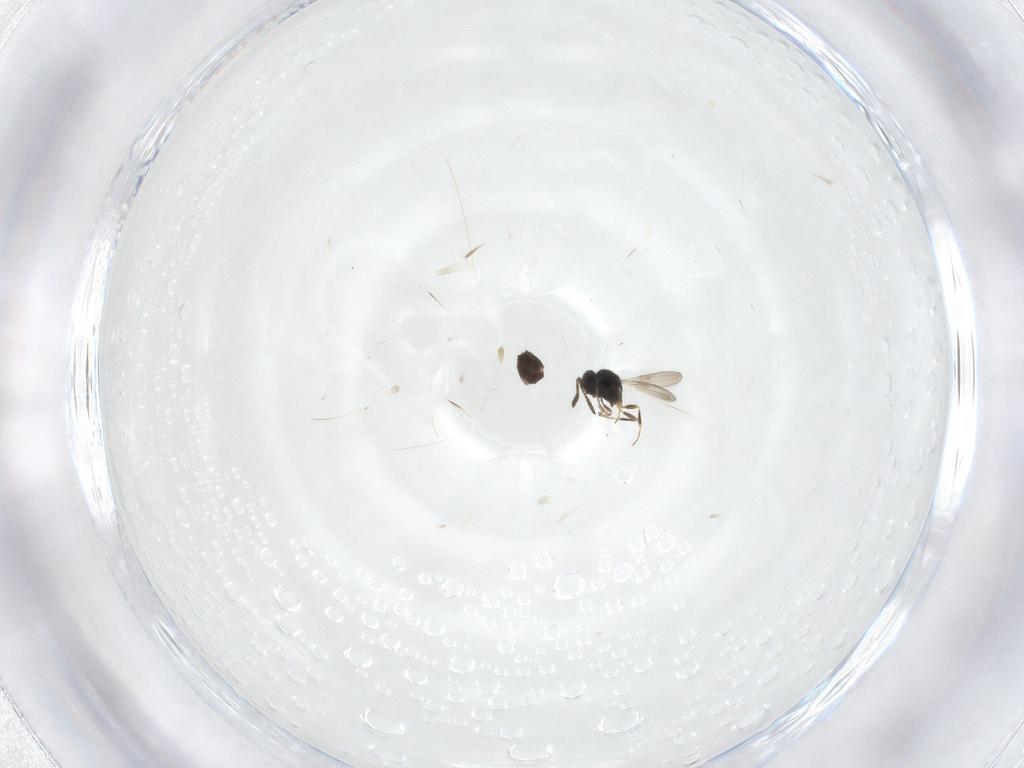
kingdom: Animalia
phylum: Arthropoda
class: Insecta
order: Hymenoptera
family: Scelionidae
